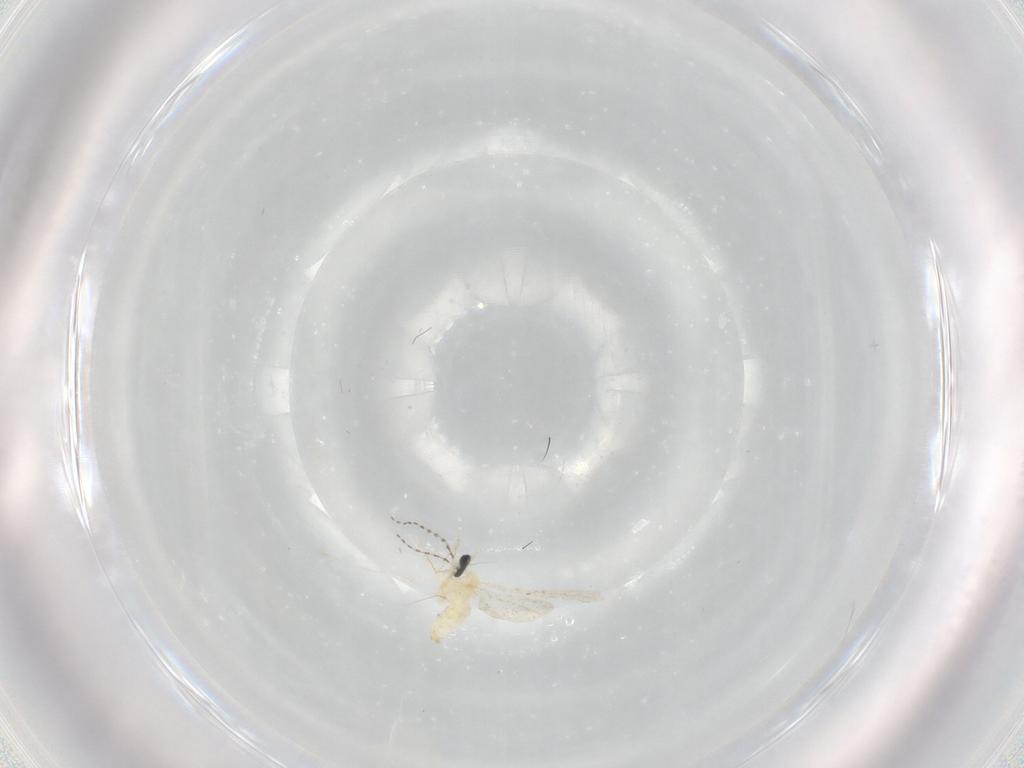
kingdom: Animalia
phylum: Arthropoda
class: Insecta
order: Diptera
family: Cecidomyiidae
